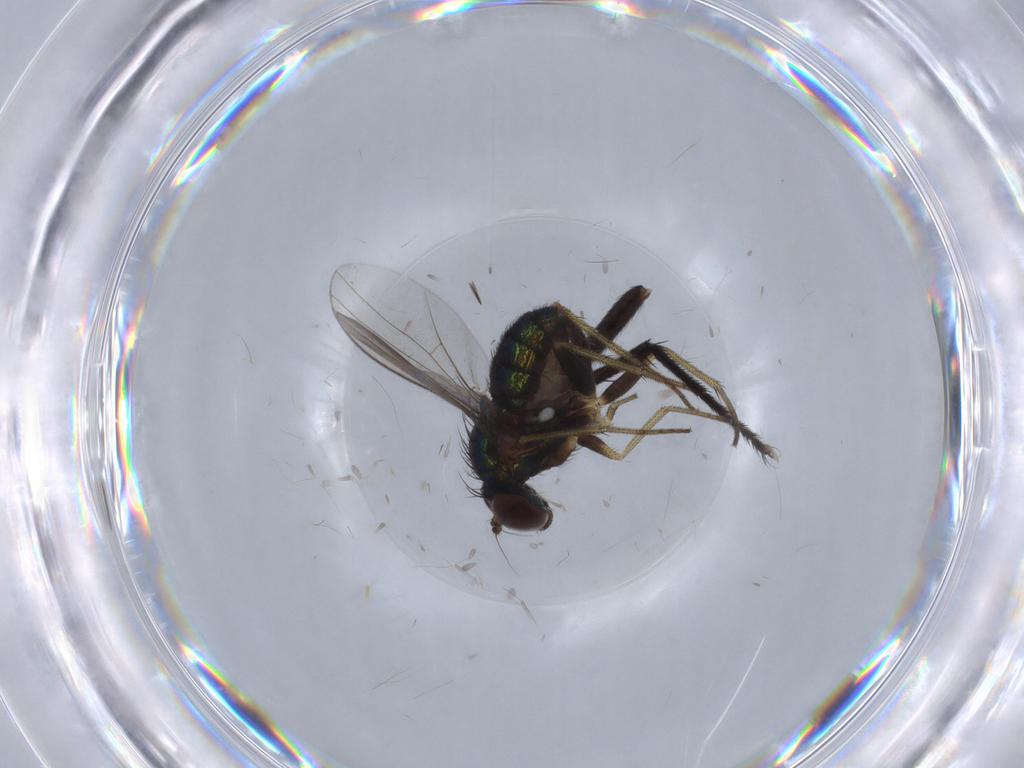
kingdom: Animalia
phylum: Arthropoda
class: Insecta
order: Diptera
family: Muscidae
